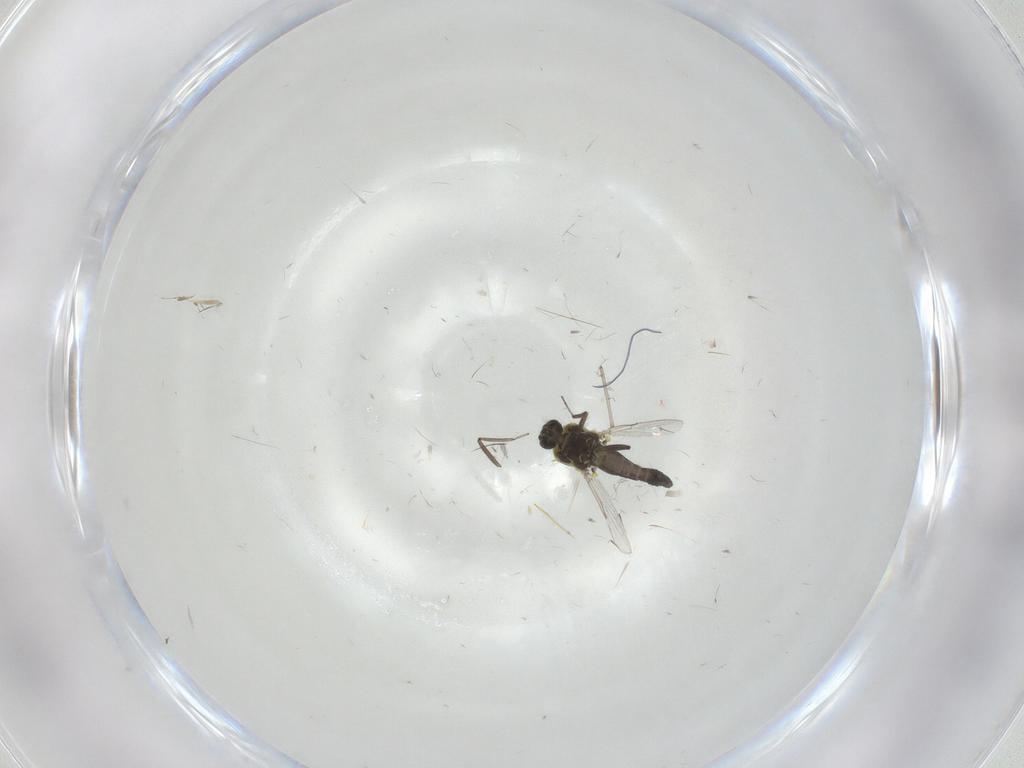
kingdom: Animalia
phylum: Arthropoda
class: Insecta
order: Diptera
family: Ceratopogonidae
